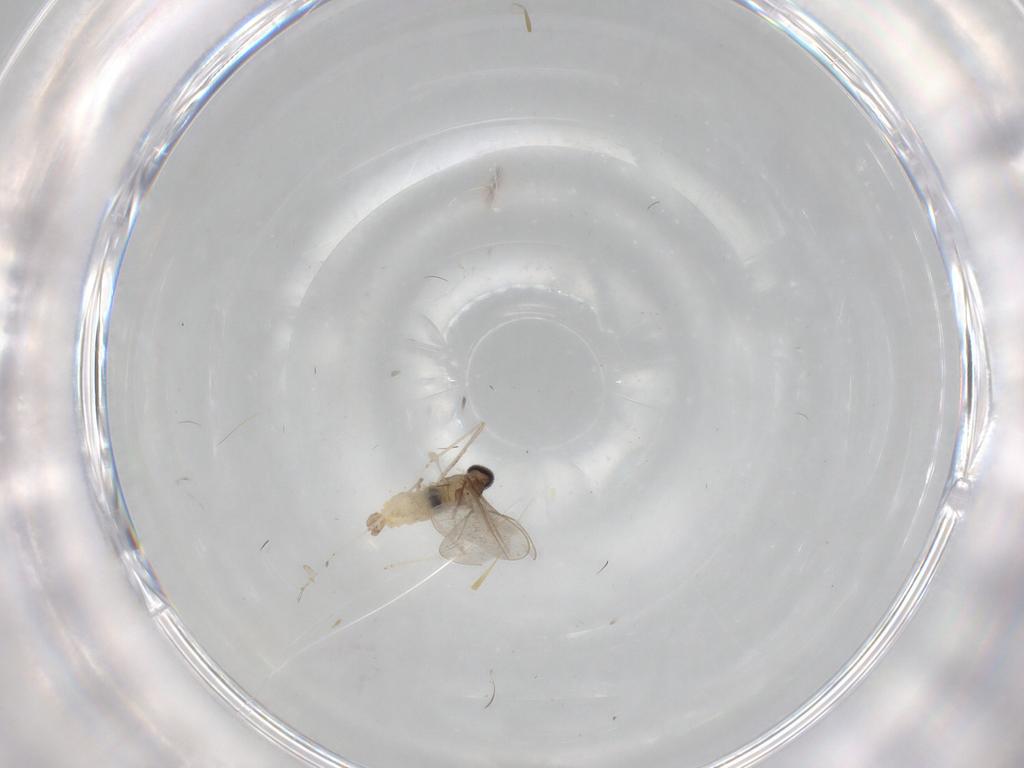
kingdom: Animalia
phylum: Arthropoda
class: Insecta
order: Diptera
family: Cecidomyiidae
